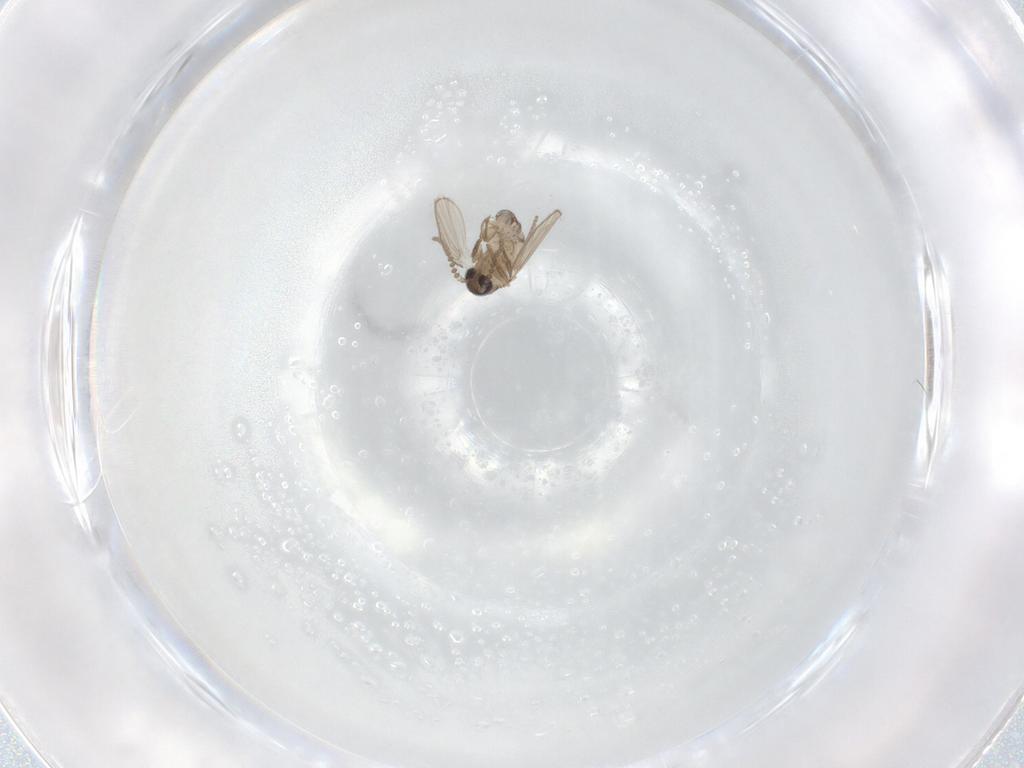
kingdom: Animalia
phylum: Arthropoda
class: Insecta
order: Diptera
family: Psychodidae
